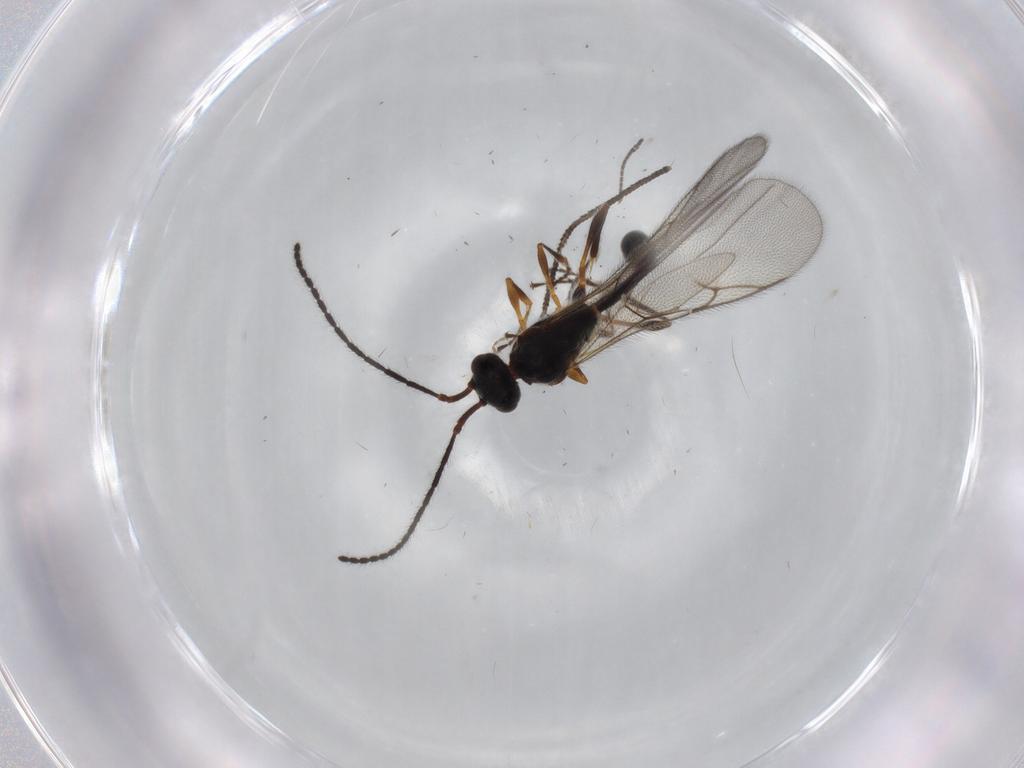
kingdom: Animalia
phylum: Arthropoda
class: Insecta
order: Hymenoptera
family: Diapriidae
